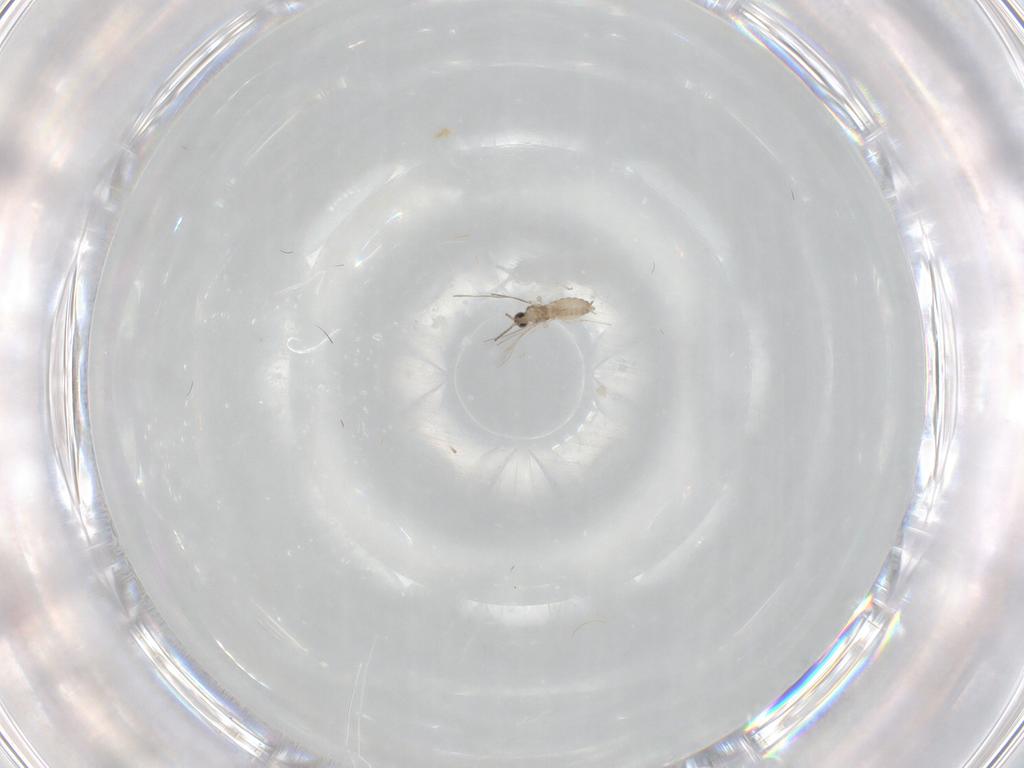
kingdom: Animalia
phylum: Arthropoda
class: Insecta
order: Diptera
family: Cecidomyiidae
